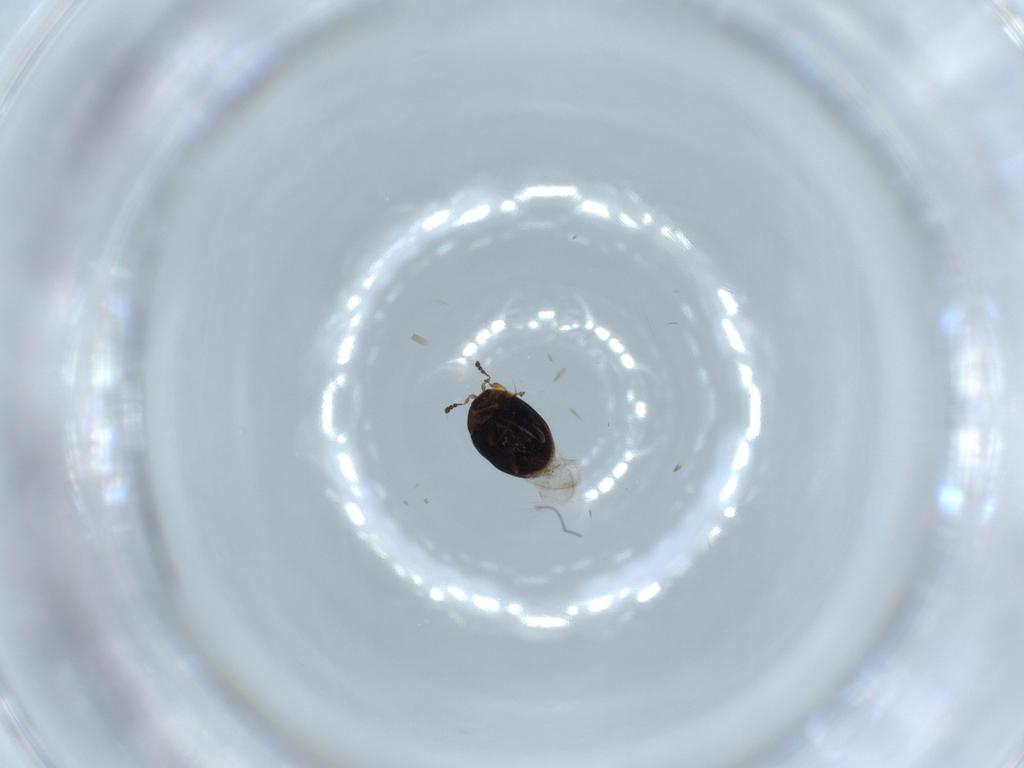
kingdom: Animalia
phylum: Arthropoda
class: Insecta
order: Coleoptera
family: Corylophidae
